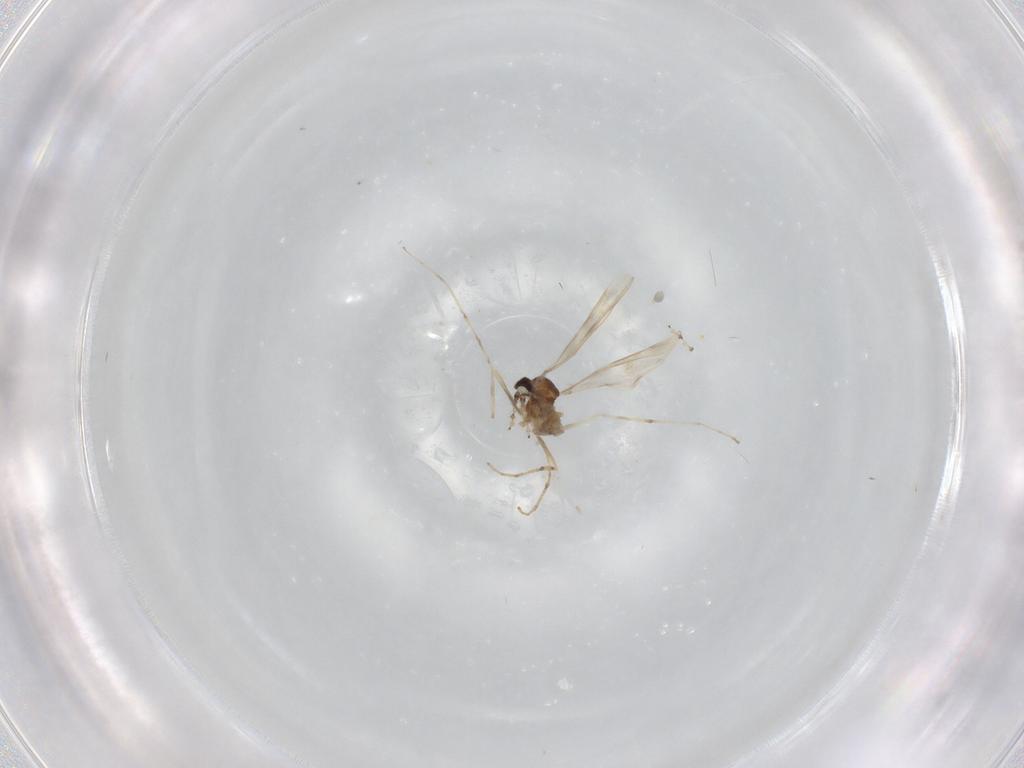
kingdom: Animalia
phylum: Arthropoda
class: Insecta
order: Diptera
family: Cecidomyiidae
